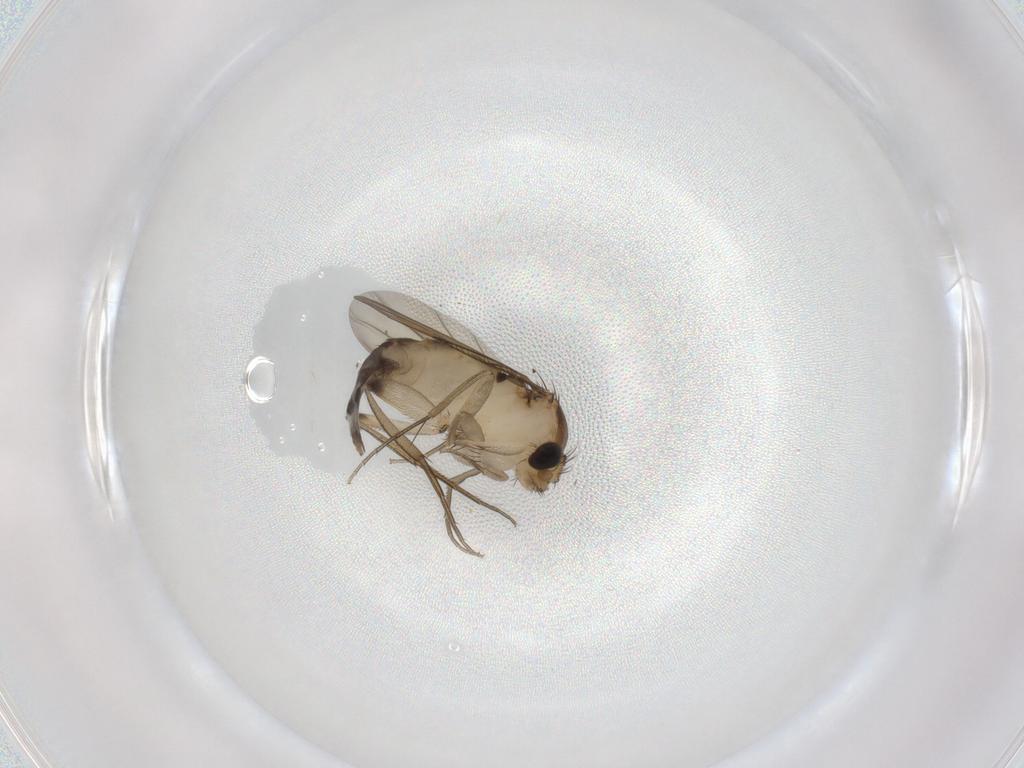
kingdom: Animalia
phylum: Arthropoda
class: Insecta
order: Diptera
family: Phoridae
